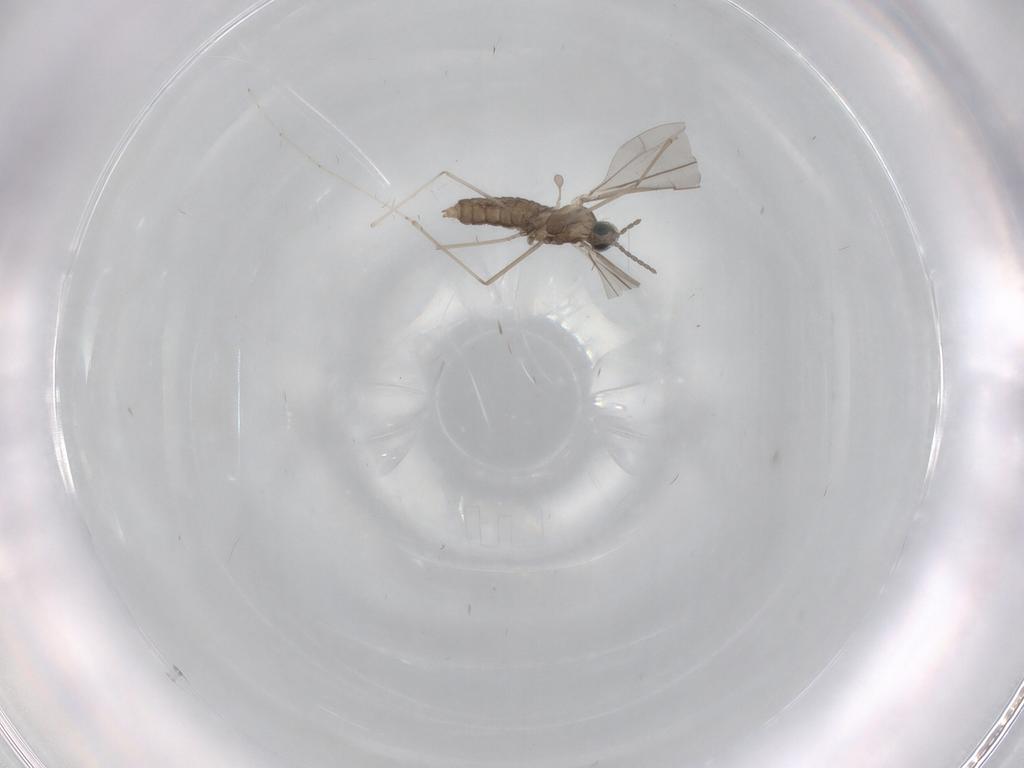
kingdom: Animalia
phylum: Arthropoda
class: Insecta
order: Diptera
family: Cecidomyiidae
